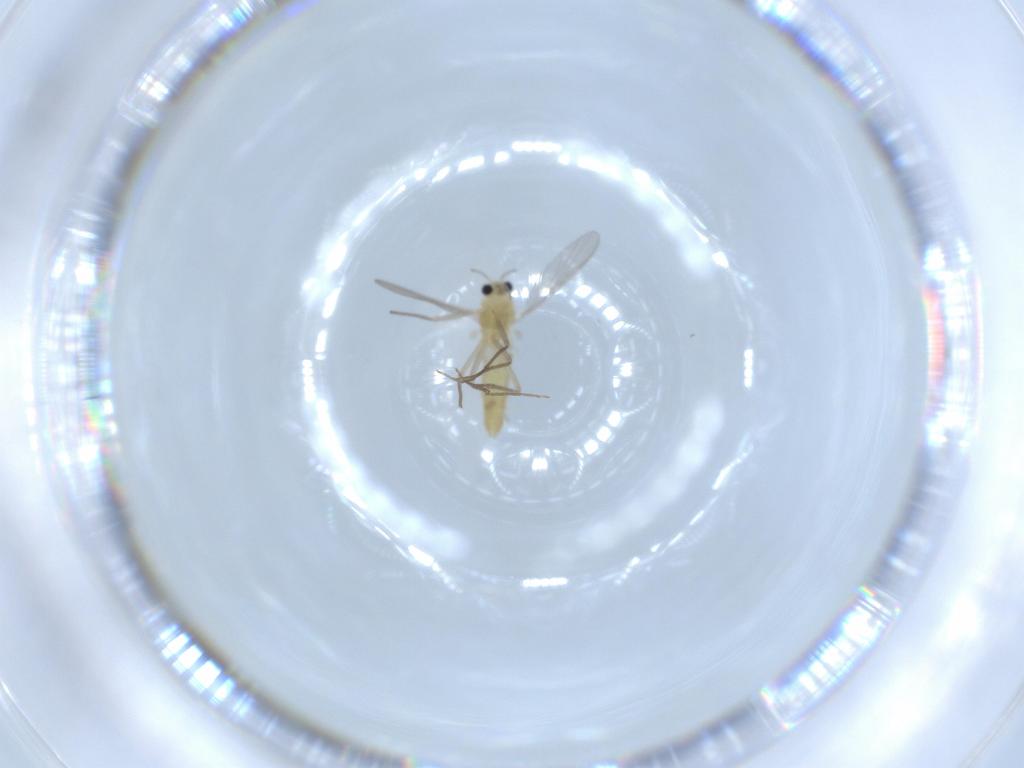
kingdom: Animalia
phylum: Arthropoda
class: Insecta
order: Diptera
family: Chironomidae
